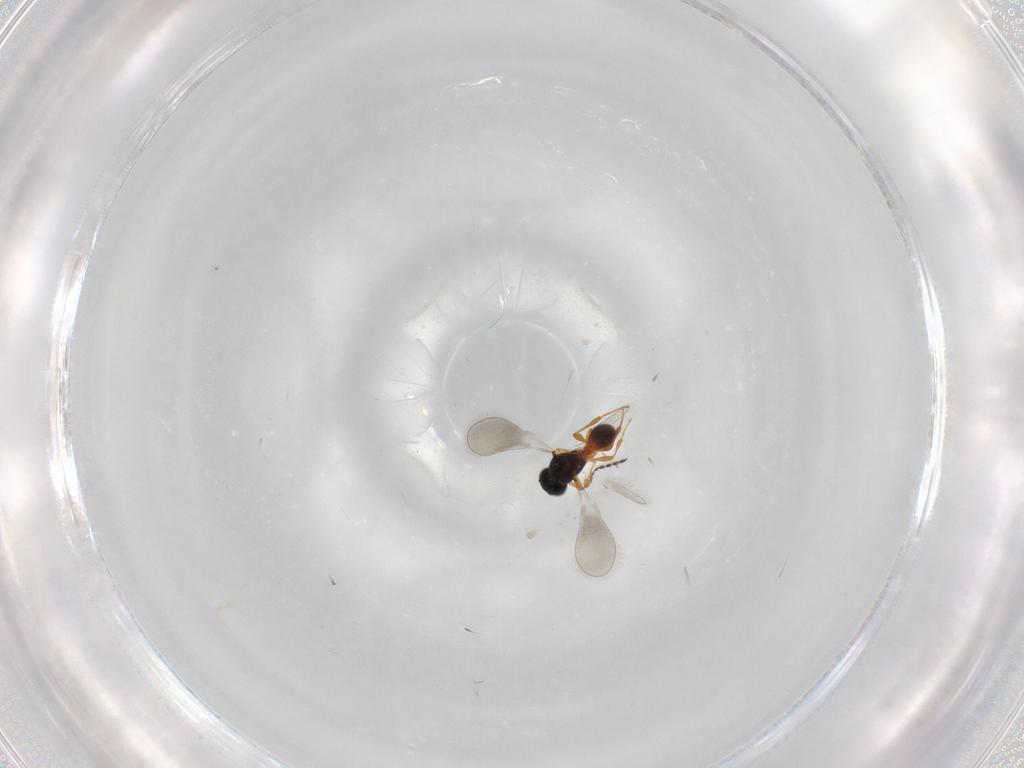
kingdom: Animalia
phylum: Arthropoda
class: Insecta
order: Hymenoptera
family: Platygastridae
